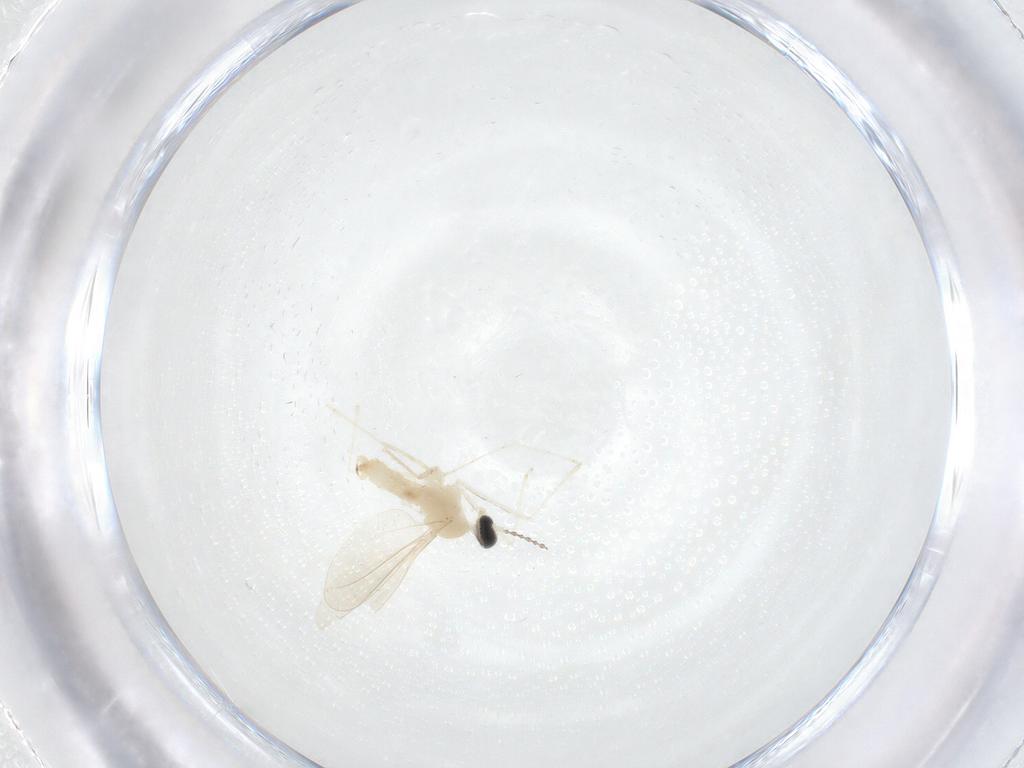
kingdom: Animalia
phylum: Arthropoda
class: Insecta
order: Diptera
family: Cecidomyiidae
